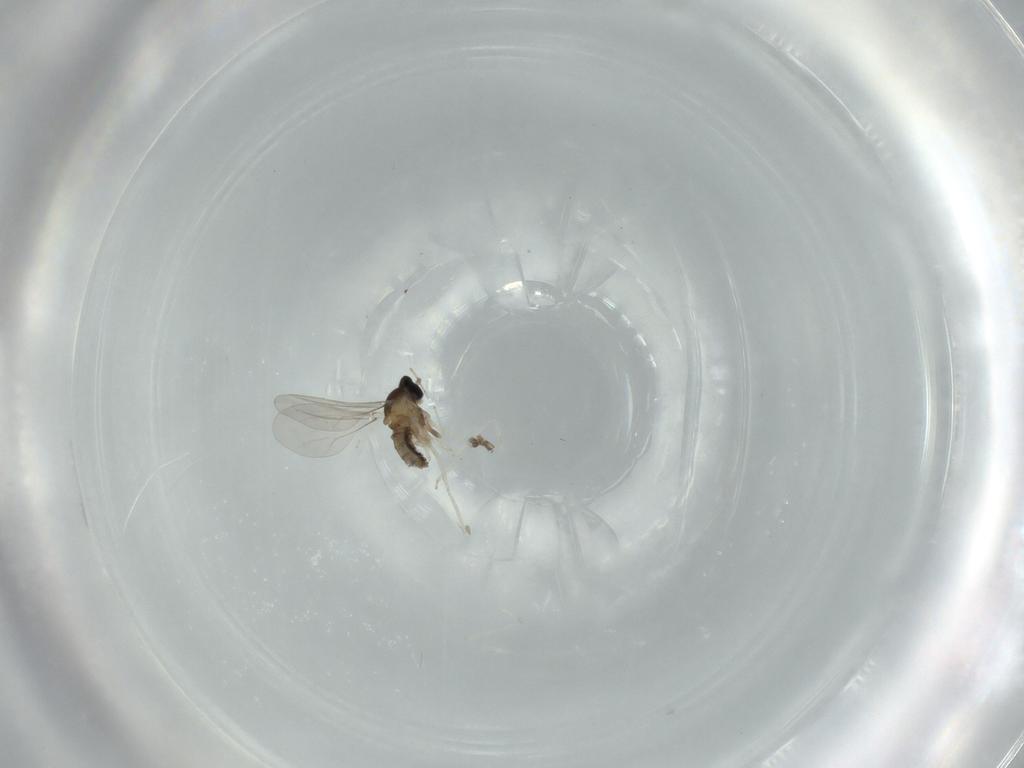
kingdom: Animalia
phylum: Arthropoda
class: Insecta
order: Diptera
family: Cecidomyiidae
